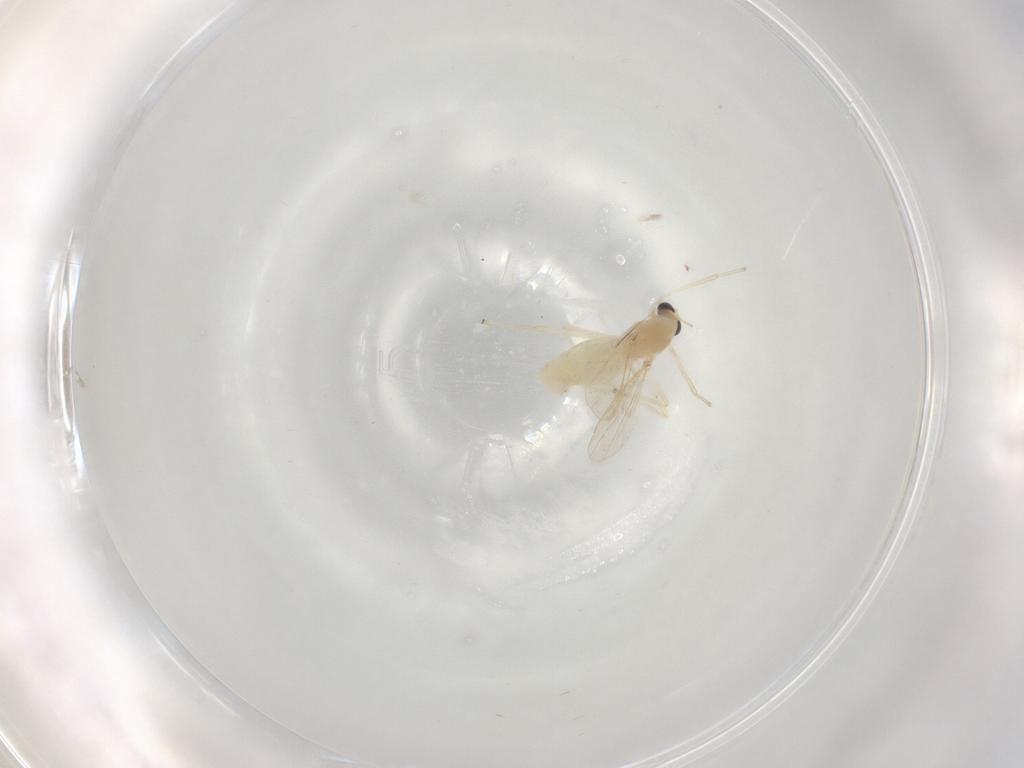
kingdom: Animalia
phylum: Arthropoda
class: Insecta
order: Diptera
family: Chironomidae
